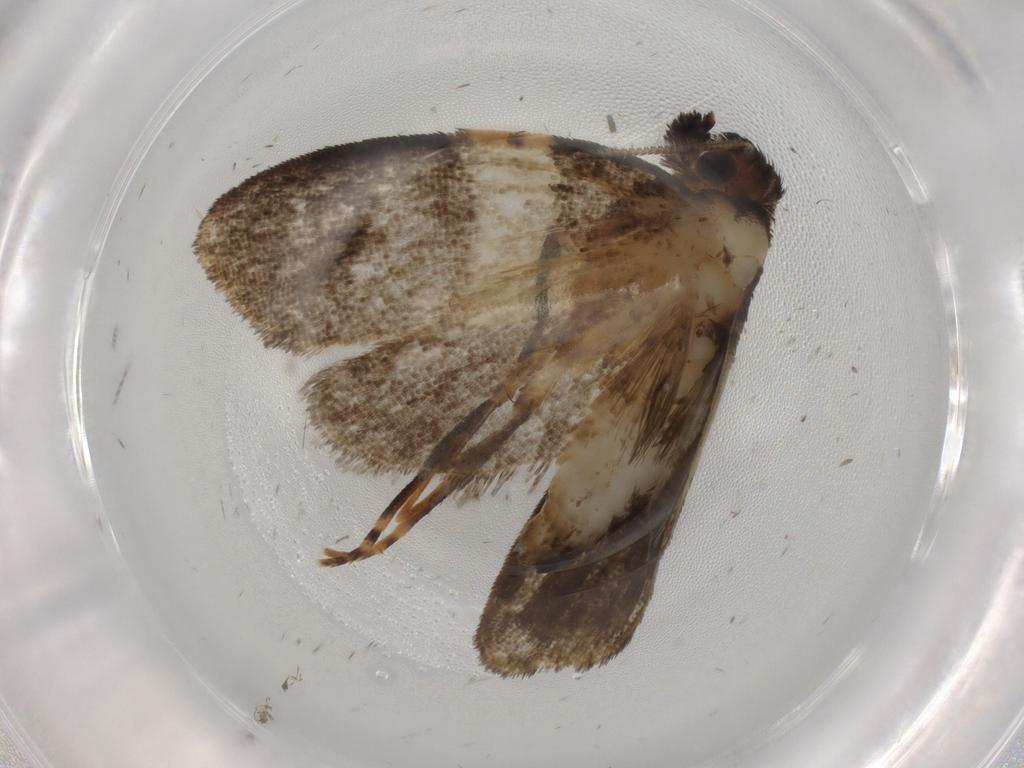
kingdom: Animalia
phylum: Arthropoda
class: Insecta
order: Lepidoptera
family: Psychidae
